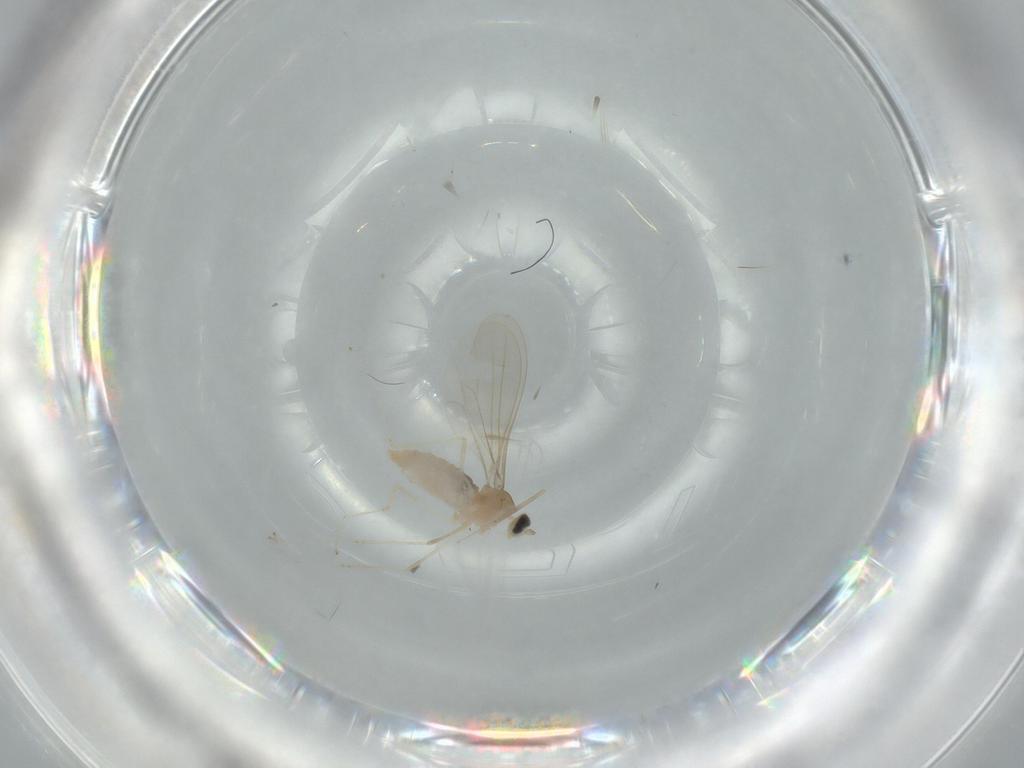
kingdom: Animalia
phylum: Arthropoda
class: Insecta
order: Diptera
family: Cecidomyiidae
